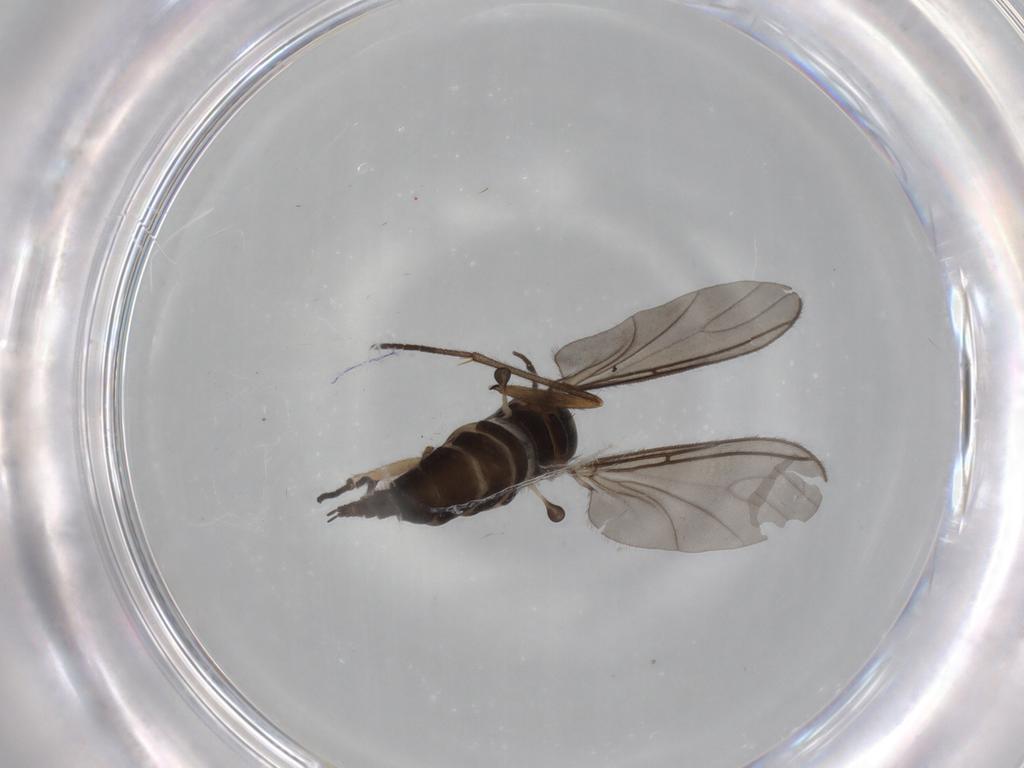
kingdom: Animalia
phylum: Arthropoda
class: Insecta
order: Diptera
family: Sciaridae
